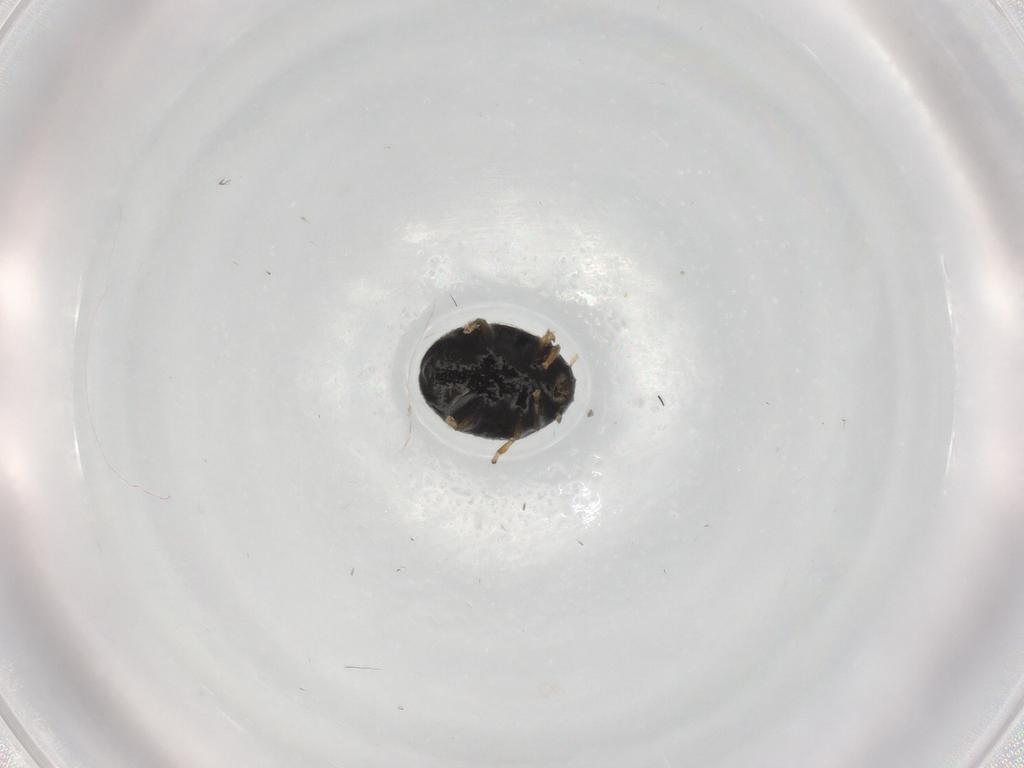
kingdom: Animalia
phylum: Arthropoda
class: Insecta
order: Coleoptera
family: Coccinellidae
